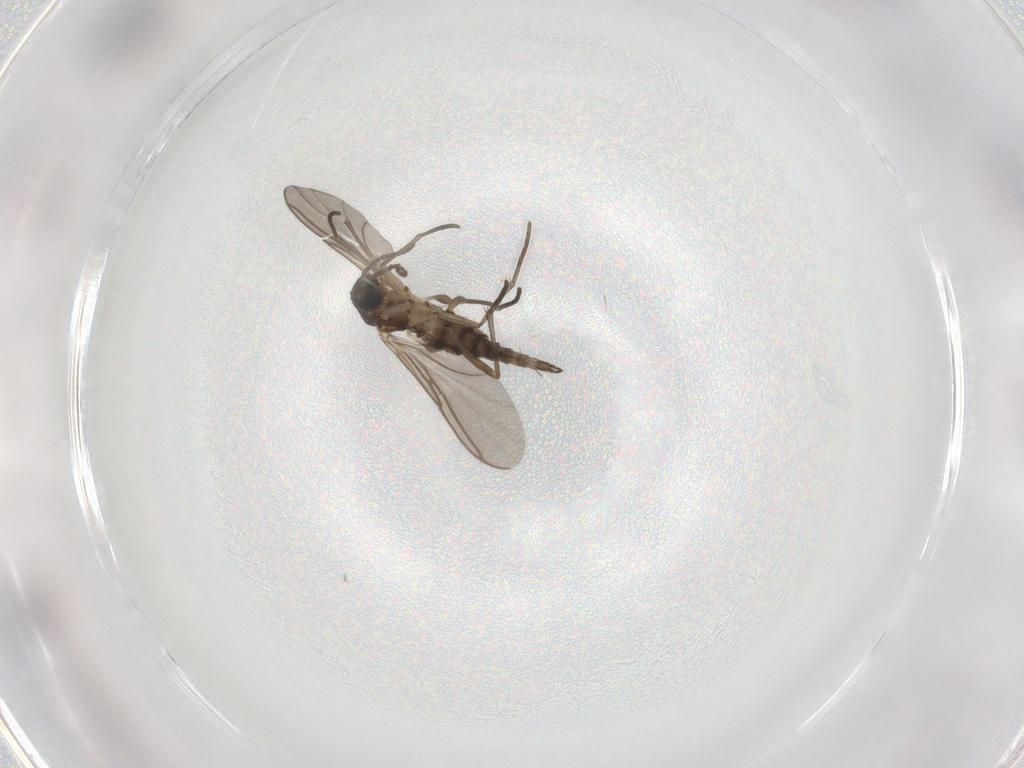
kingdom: Animalia
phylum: Arthropoda
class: Insecta
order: Diptera
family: Sciaridae
